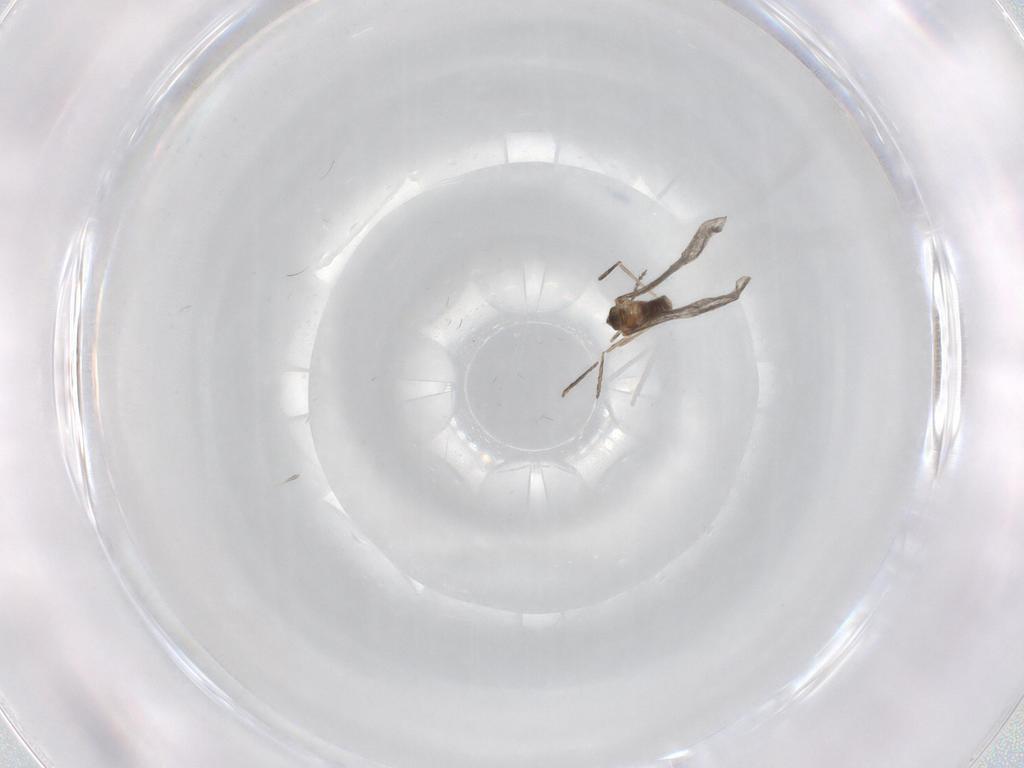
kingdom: Animalia
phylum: Arthropoda
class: Insecta
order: Diptera
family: Cecidomyiidae
